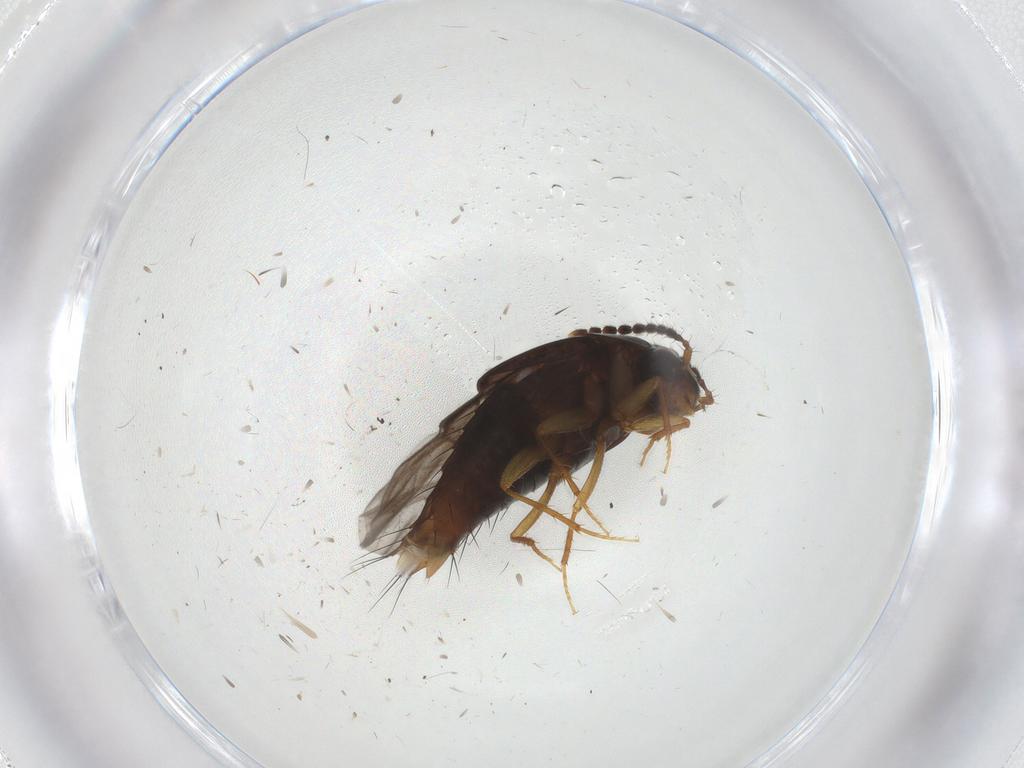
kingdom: Animalia
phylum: Arthropoda
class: Insecta
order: Coleoptera
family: Staphylinidae
